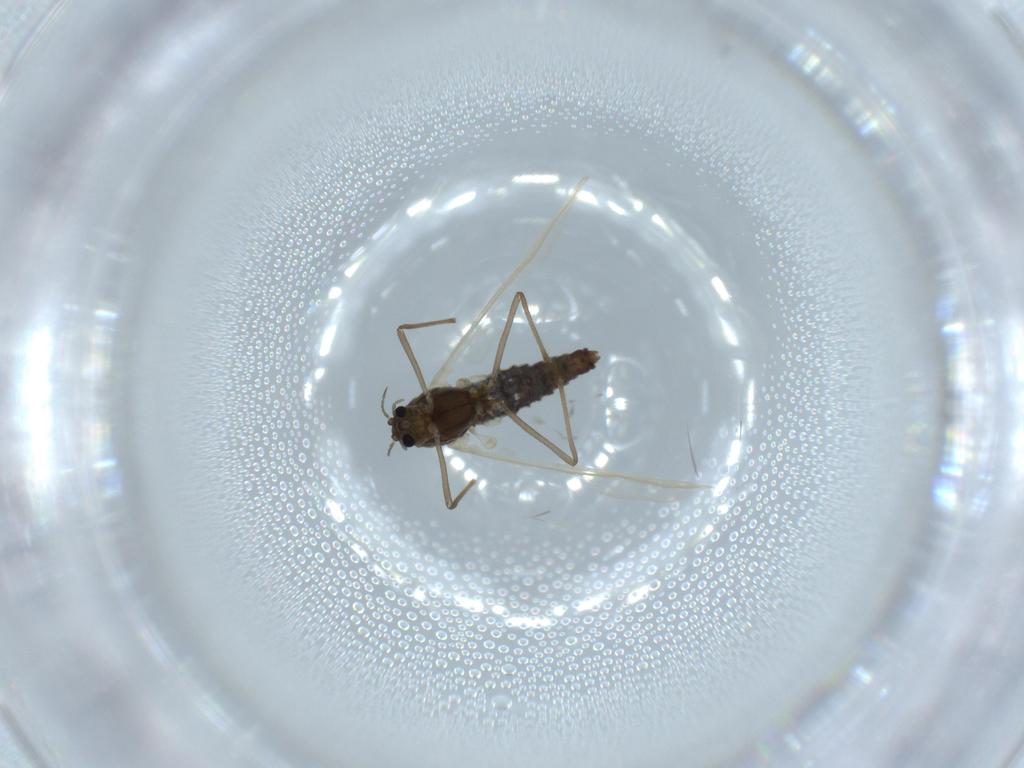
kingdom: Animalia
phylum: Arthropoda
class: Insecta
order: Diptera
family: Chironomidae
